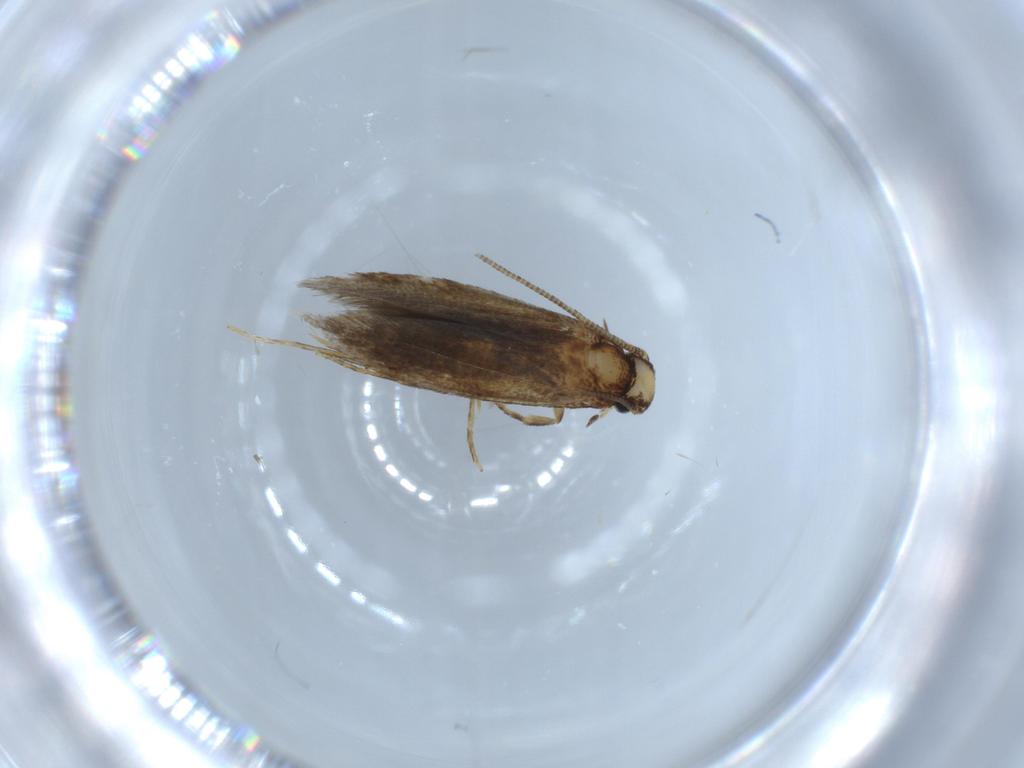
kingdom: Animalia
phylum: Arthropoda
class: Insecta
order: Lepidoptera
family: Tineidae
